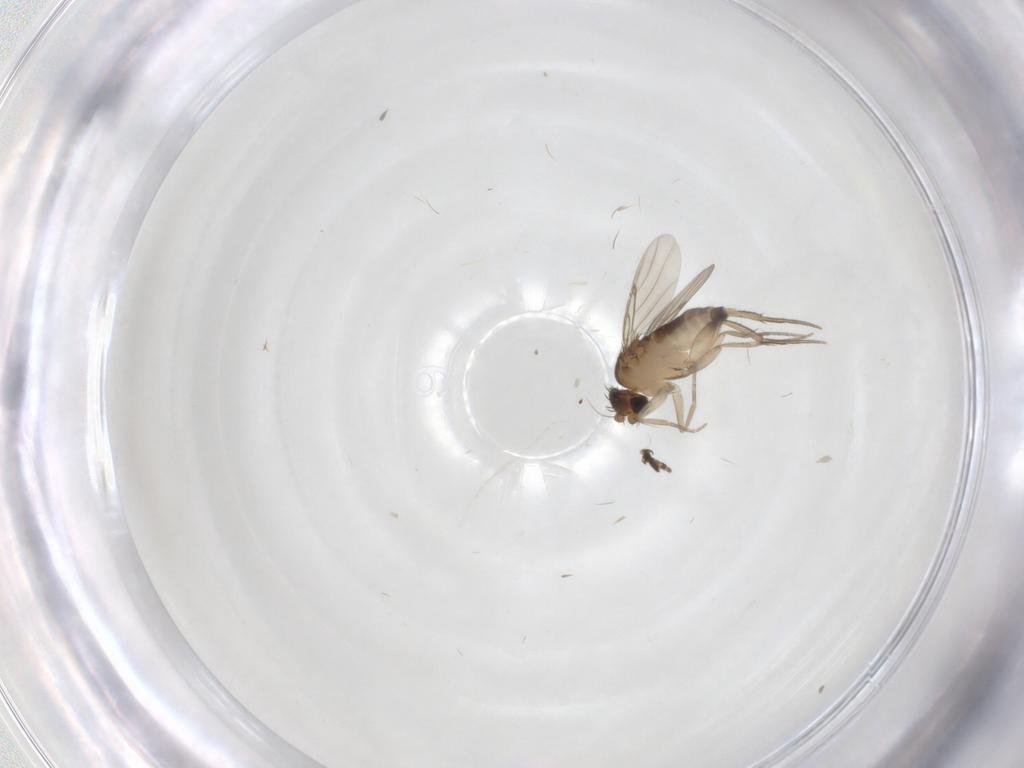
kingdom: Animalia
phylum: Arthropoda
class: Insecta
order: Diptera
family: Sciaridae
